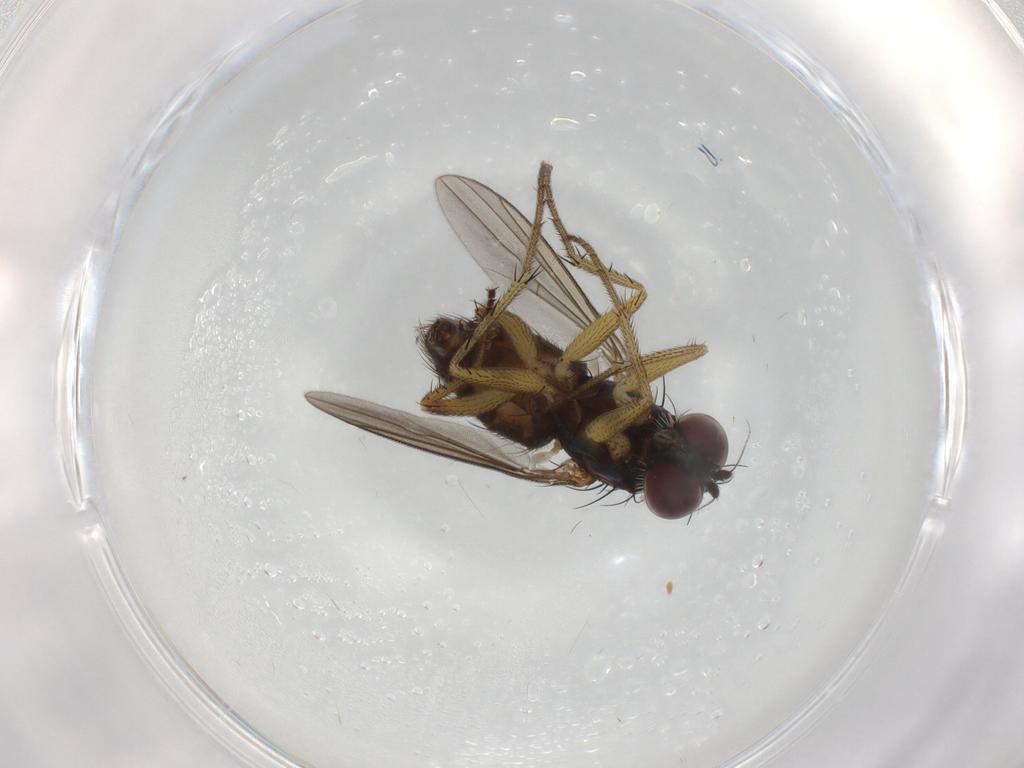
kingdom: Animalia
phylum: Arthropoda
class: Insecta
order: Diptera
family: Dolichopodidae
